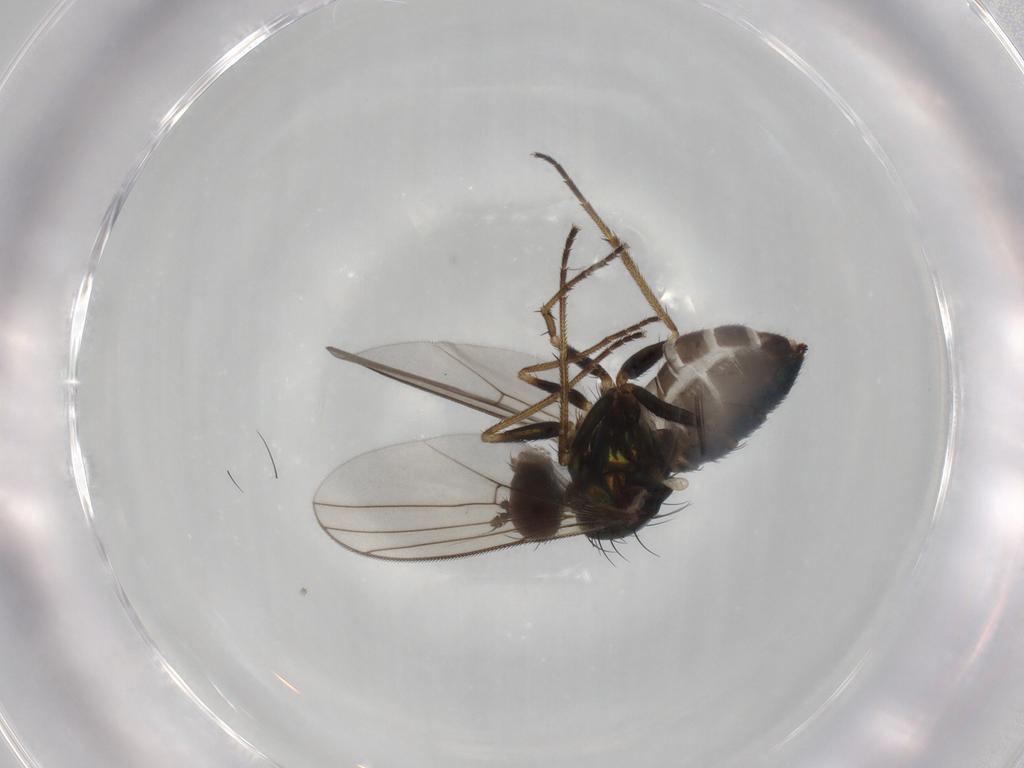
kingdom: Animalia
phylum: Arthropoda
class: Insecta
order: Diptera
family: Dolichopodidae
